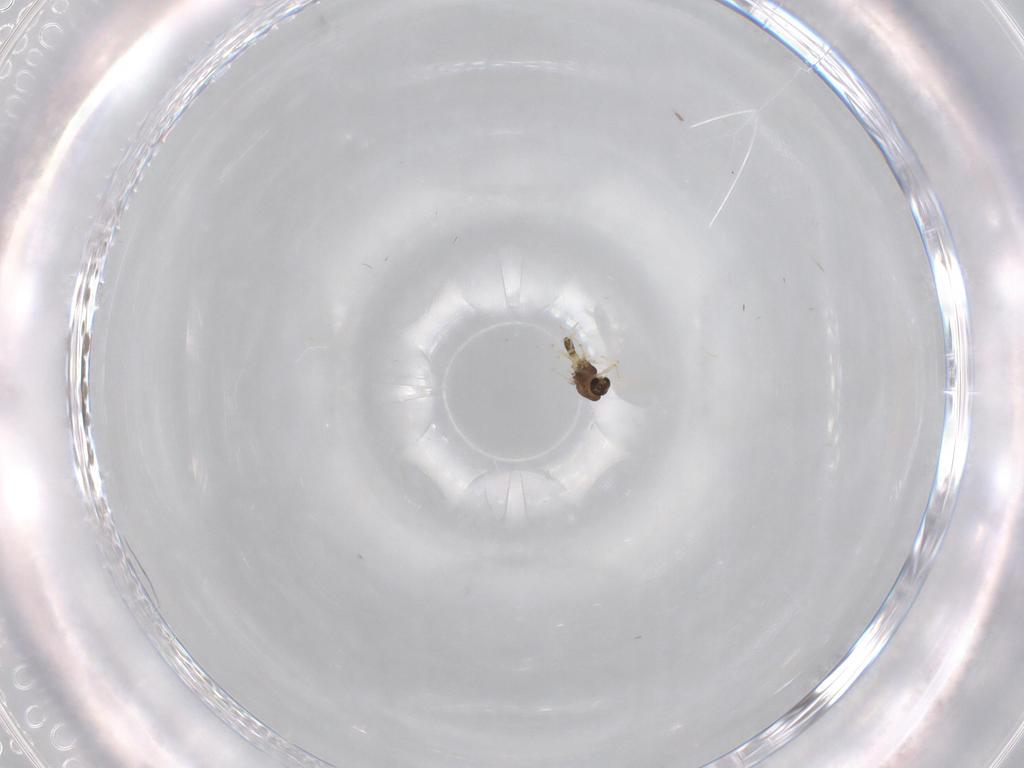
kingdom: Animalia
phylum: Arthropoda
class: Insecta
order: Diptera
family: Chironomidae
